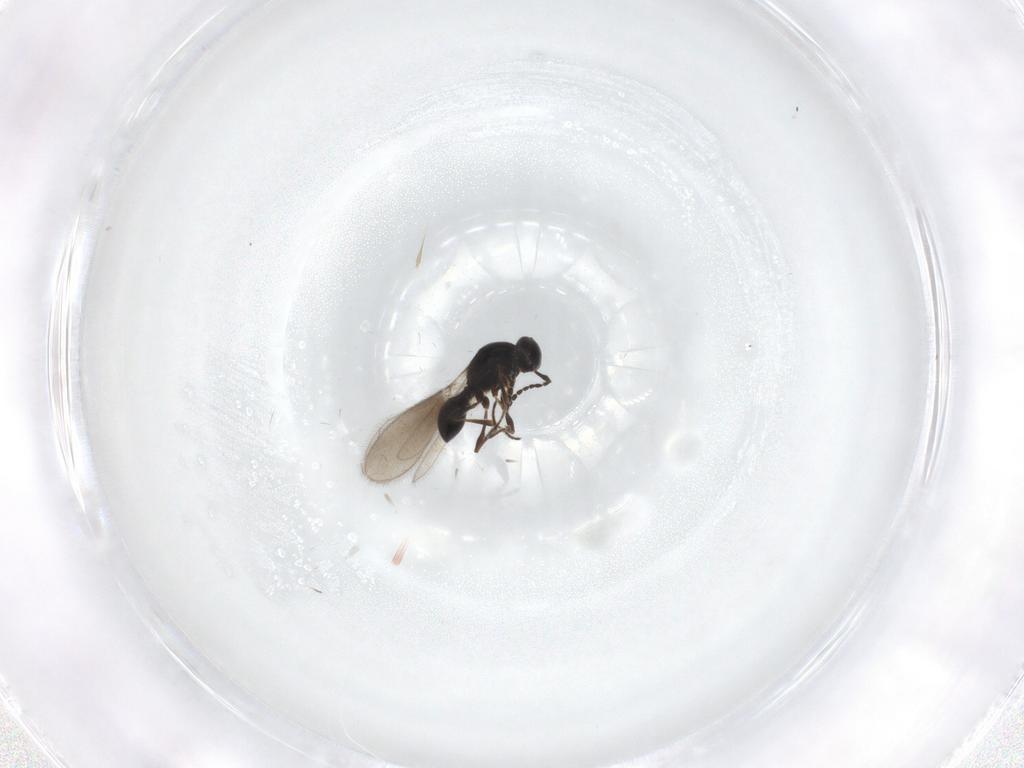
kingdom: Animalia
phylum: Arthropoda
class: Insecta
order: Hymenoptera
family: Platygastridae
